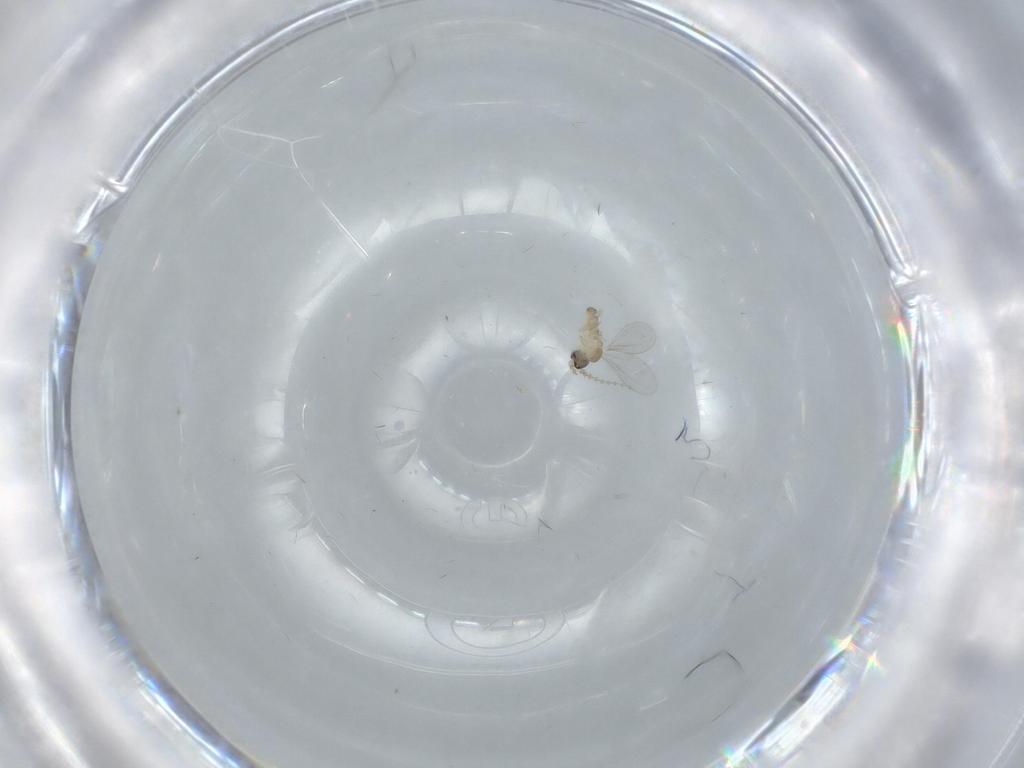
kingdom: Animalia
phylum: Arthropoda
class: Insecta
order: Diptera
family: Cecidomyiidae
